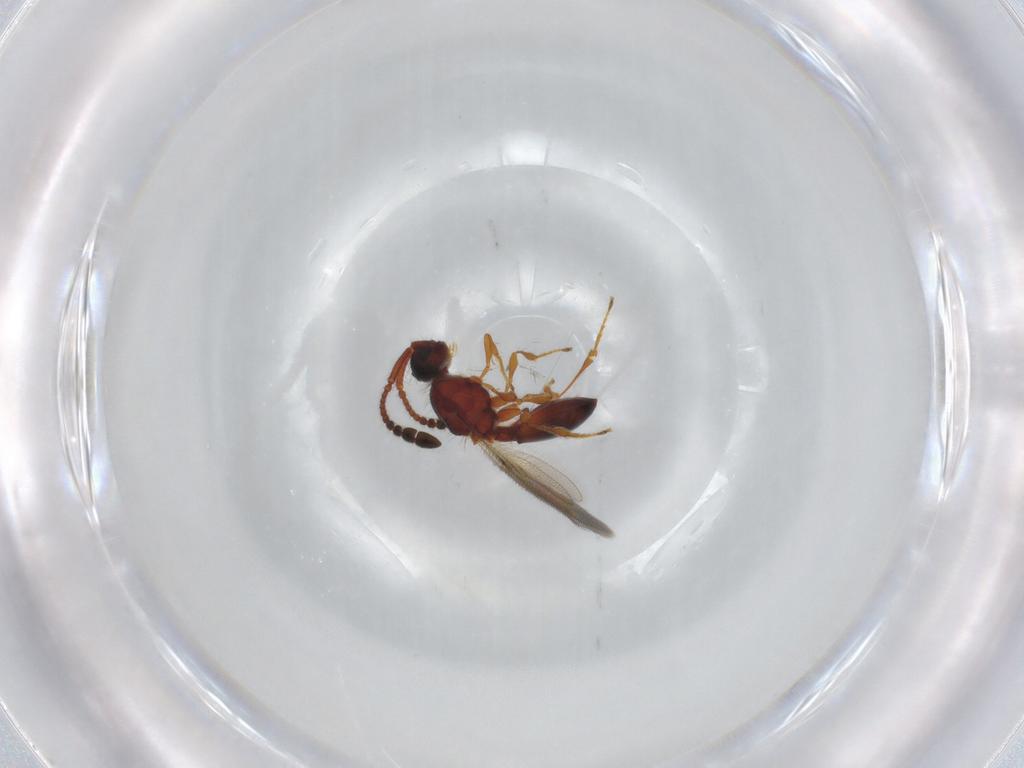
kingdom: Animalia
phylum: Arthropoda
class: Insecta
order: Hymenoptera
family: Diapriidae
